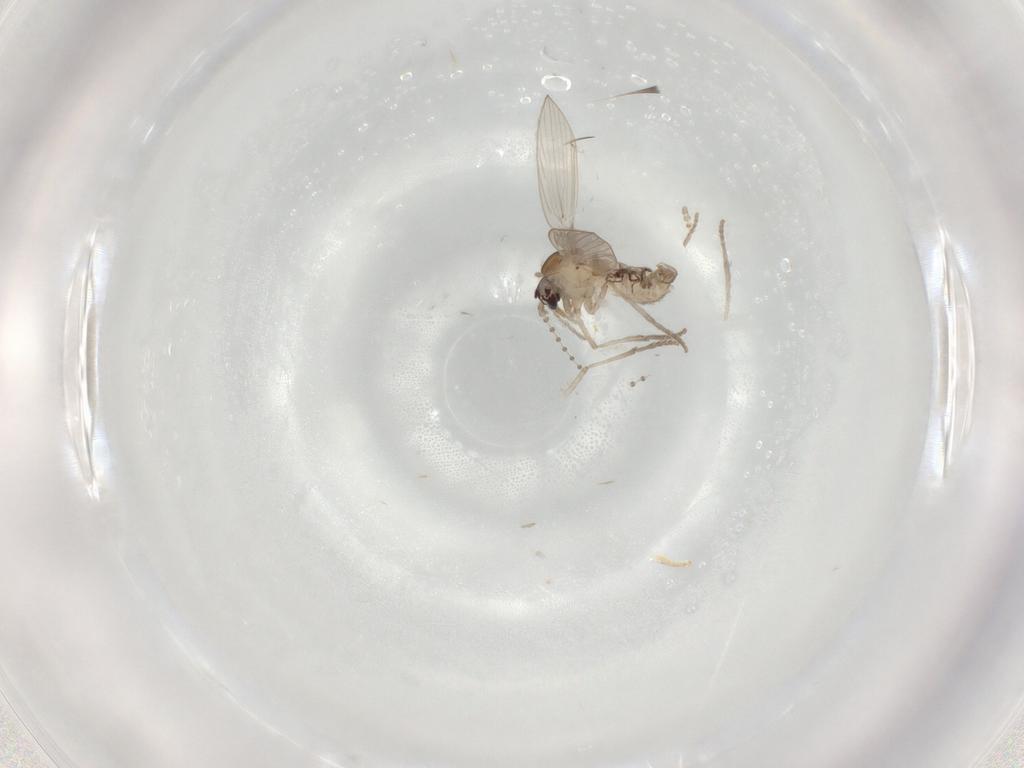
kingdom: Animalia
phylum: Arthropoda
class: Insecta
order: Diptera
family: Psychodidae
